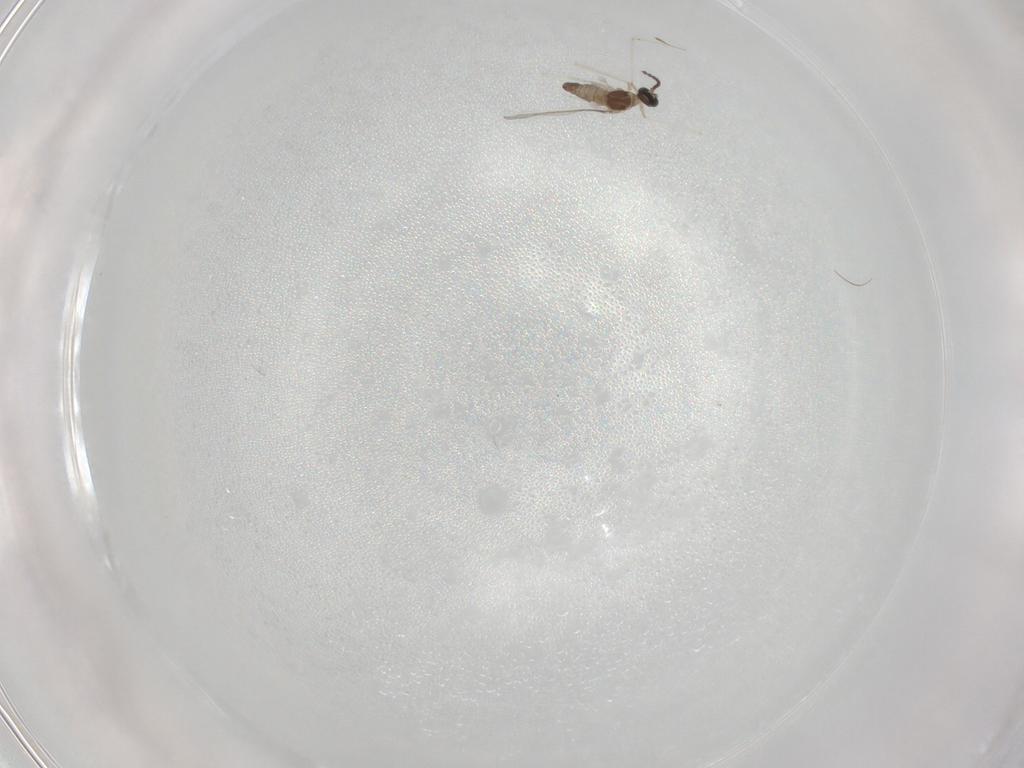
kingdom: Animalia
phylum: Arthropoda
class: Insecta
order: Diptera
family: Cecidomyiidae
